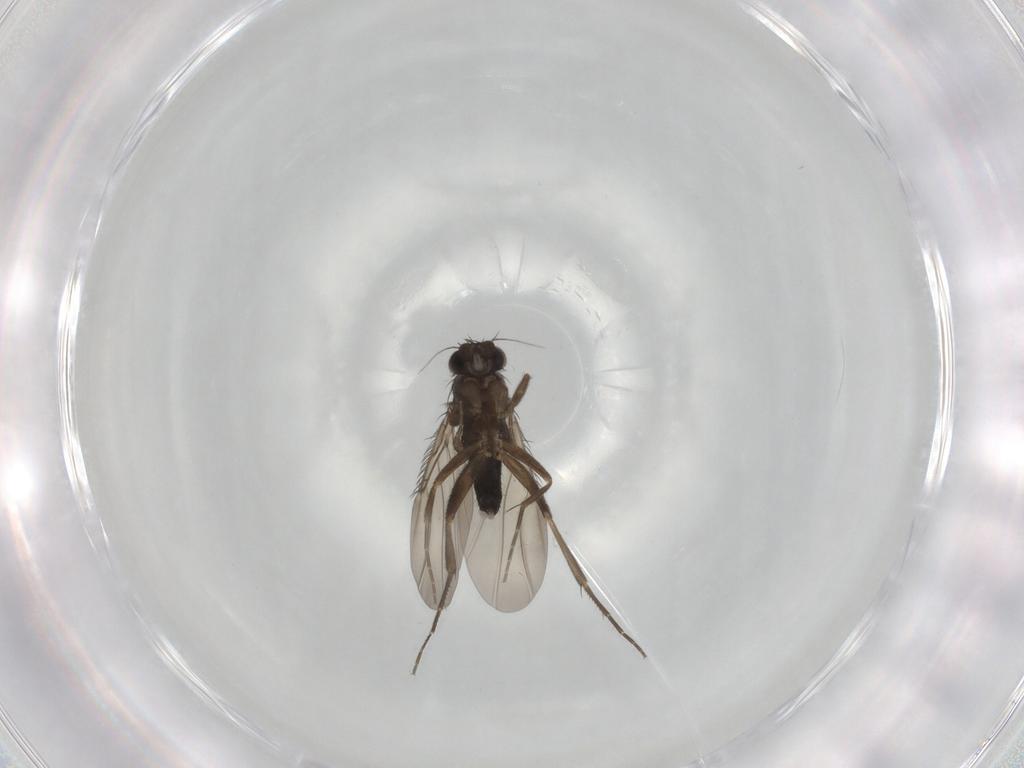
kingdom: Animalia
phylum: Arthropoda
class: Insecta
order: Diptera
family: Phoridae
